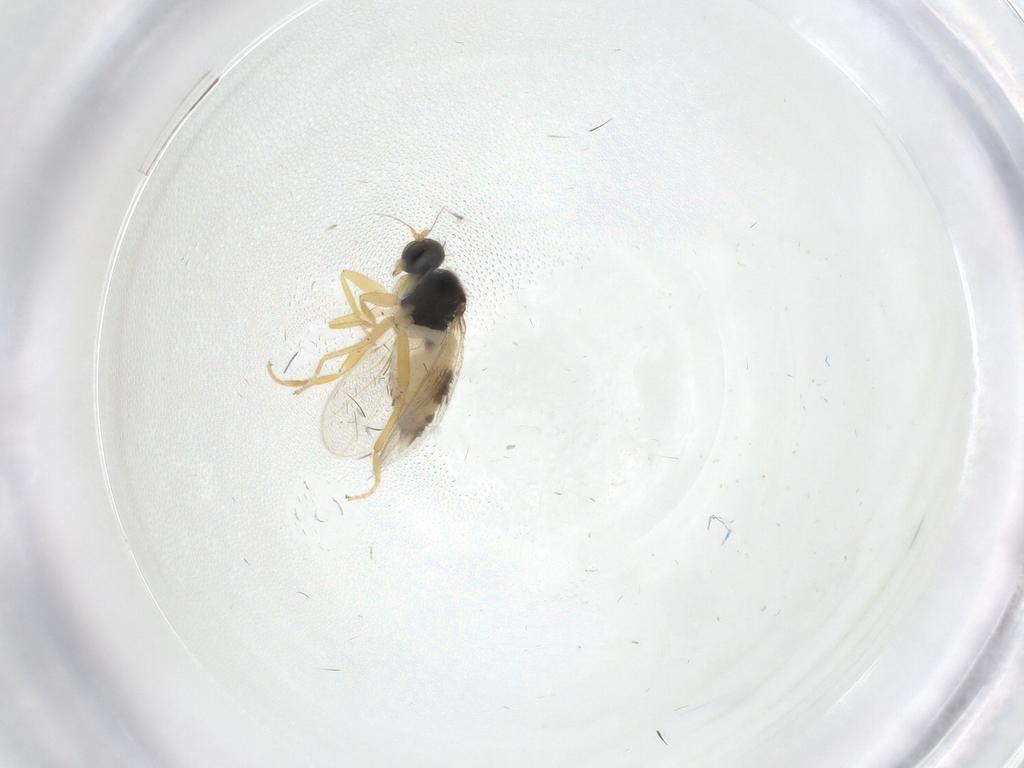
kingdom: Animalia
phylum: Arthropoda
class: Insecta
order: Diptera
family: Hybotidae
